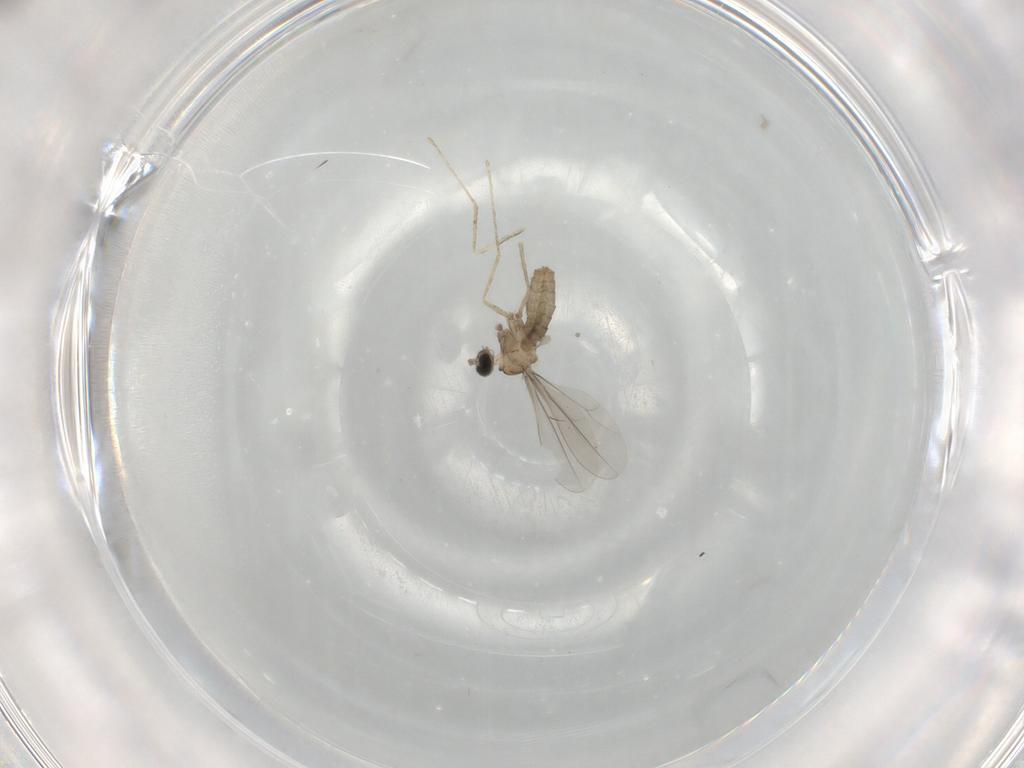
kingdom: Animalia
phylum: Arthropoda
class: Insecta
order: Diptera
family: Cecidomyiidae
